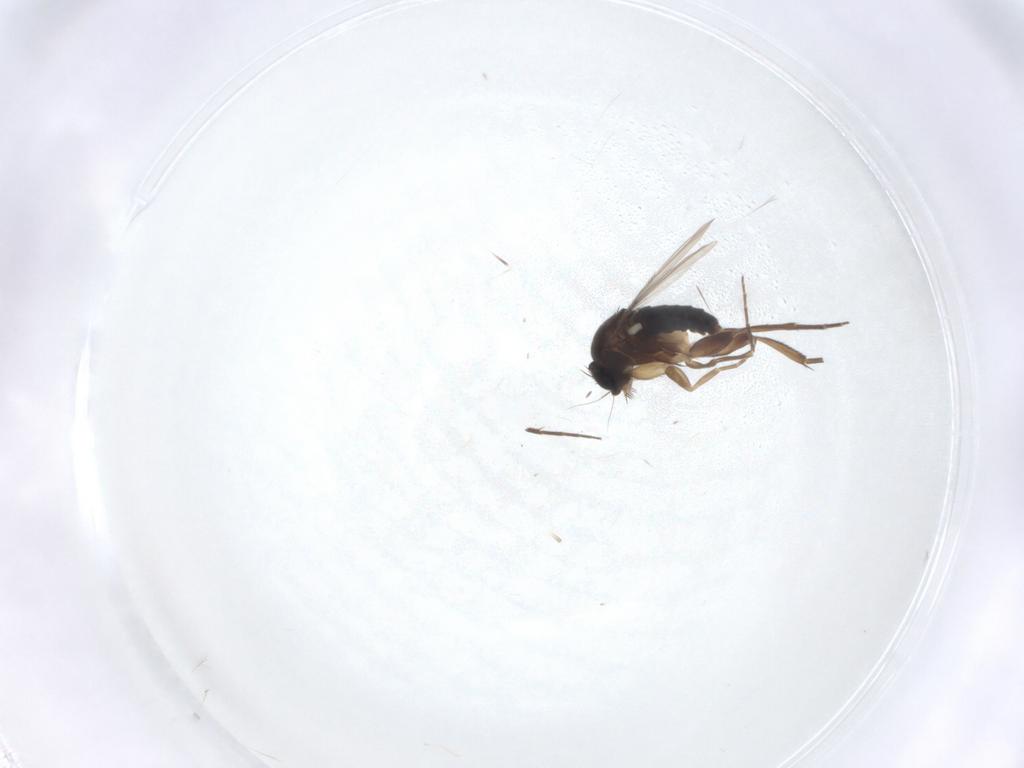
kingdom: Animalia
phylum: Arthropoda
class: Insecta
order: Diptera
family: Phoridae
